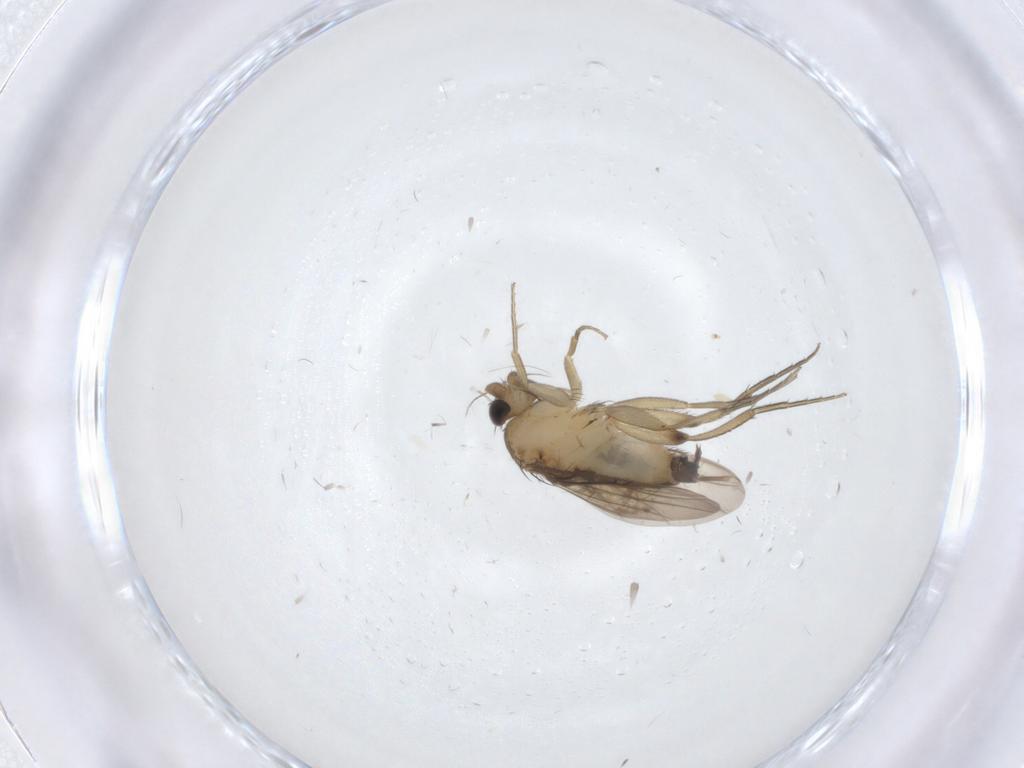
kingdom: Animalia
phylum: Arthropoda
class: Insecta
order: Diptera
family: Phoridae
